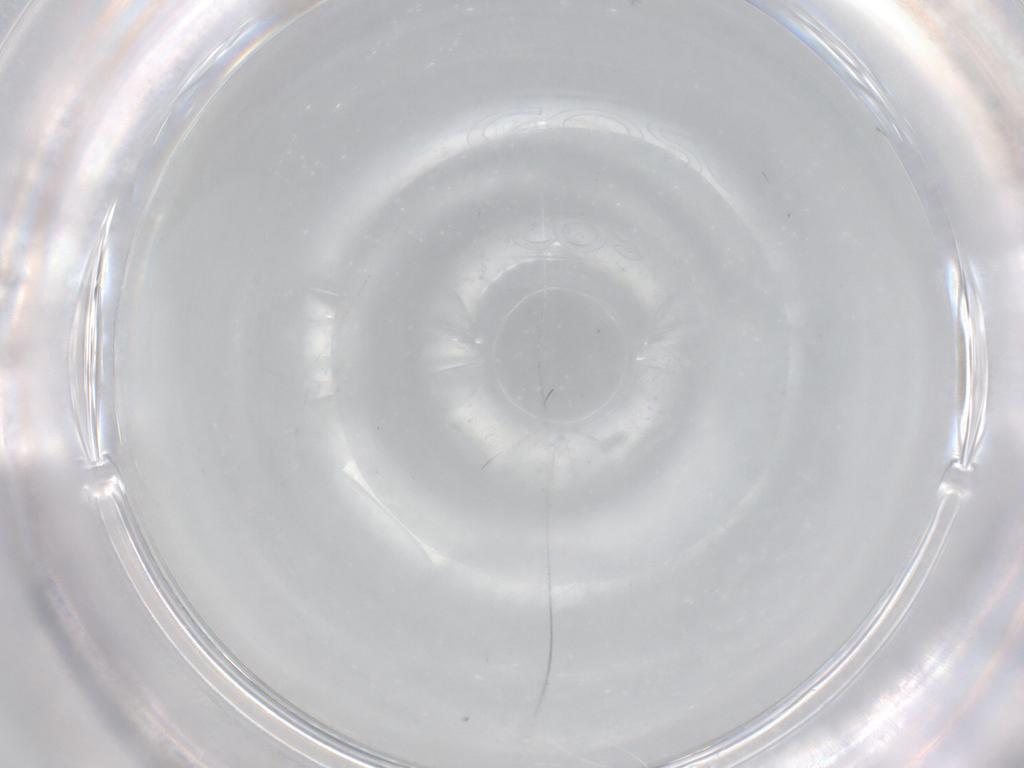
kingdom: Animalia
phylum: Arthropoda
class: Insecta
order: Diptera
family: Cecidomyiidae
